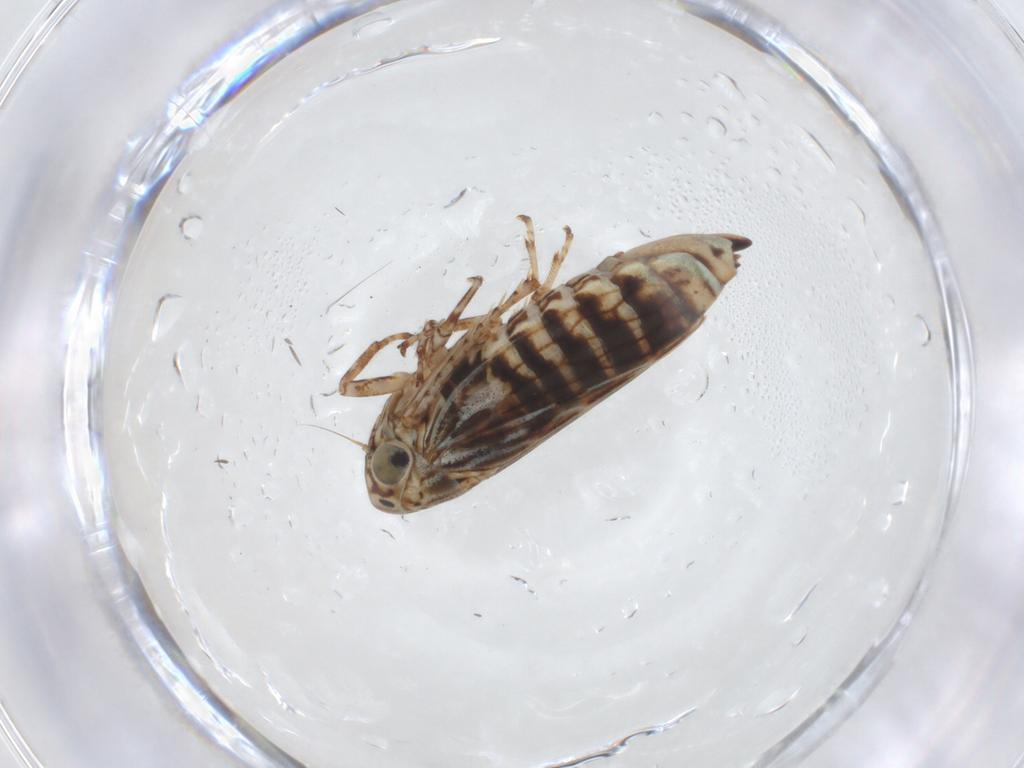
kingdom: Animalia
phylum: Arthropoda
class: Insecta
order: Hemiptera
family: Cicadellidae
